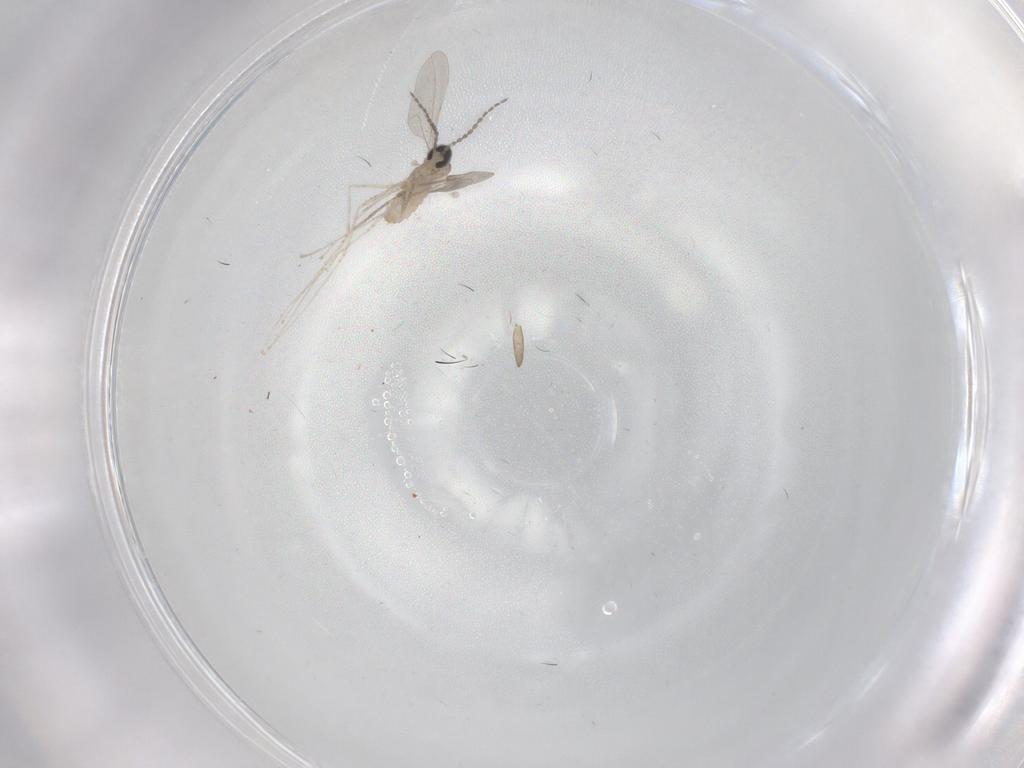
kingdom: Animalia
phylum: Arthropoda
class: Insecta
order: Diptera
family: Cecidomyiidae
